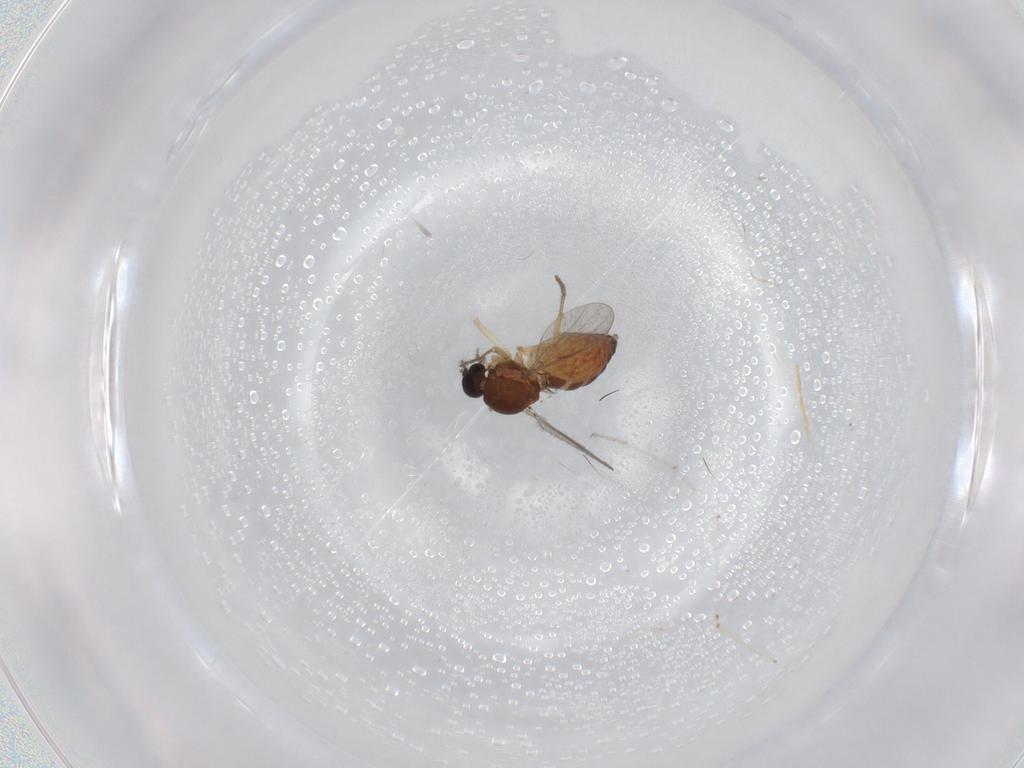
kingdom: Animalia
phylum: Arthropoda
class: Insecta
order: Diptera
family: Ceratopogonidae
